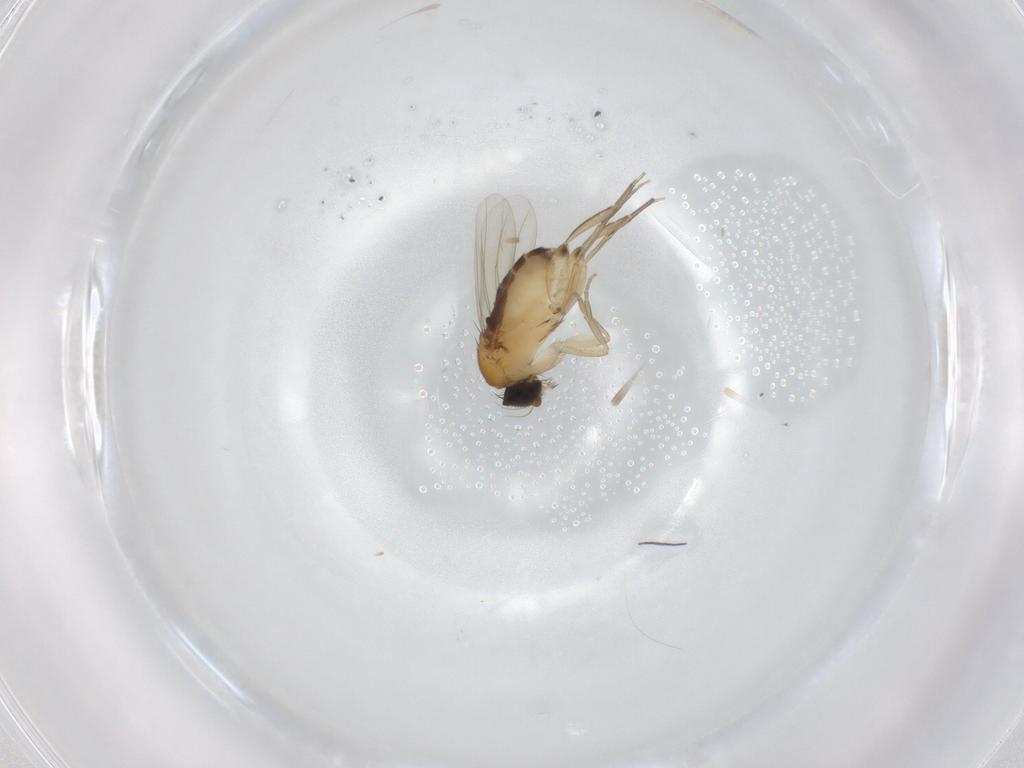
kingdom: Animalia
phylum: Arthropoda
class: Insecta
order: Diptera
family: Phoridae
